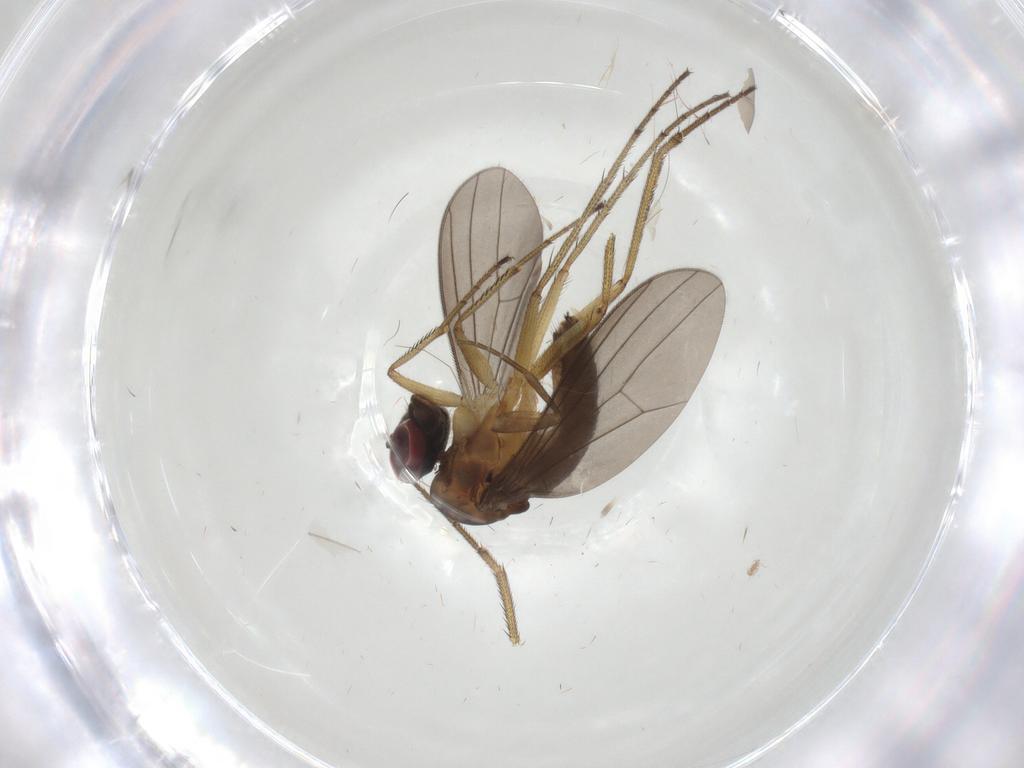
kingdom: Animalia
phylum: Arthropoda
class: Insecta
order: Diptera
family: Dolichopodidae
